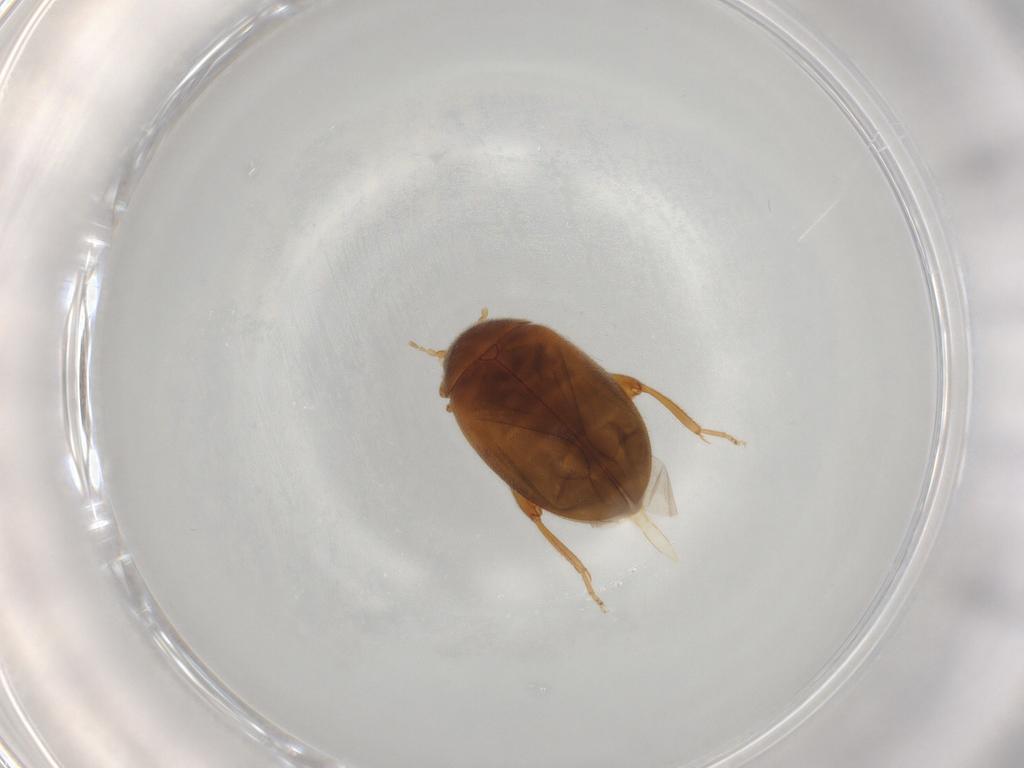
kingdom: Animalia
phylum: Arthropoda
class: Insecta
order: Coleoptera
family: Scirtidae
